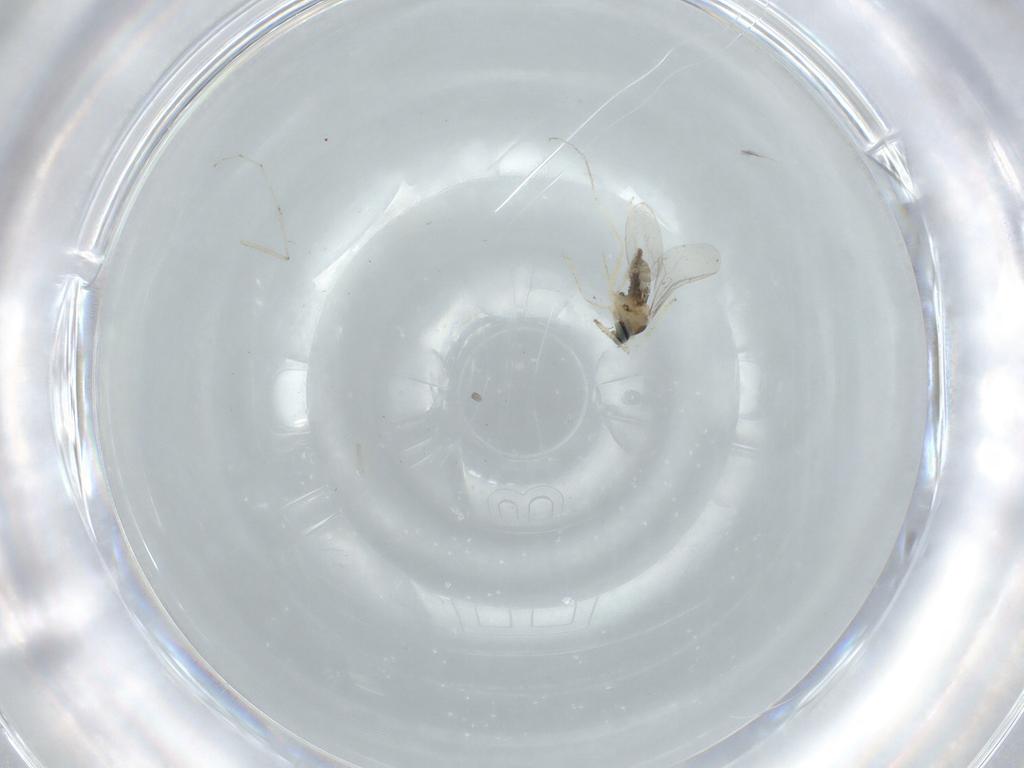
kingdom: Animalia
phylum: Arthropoda
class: Insecta
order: Diptera
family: Cecidomyiidae
